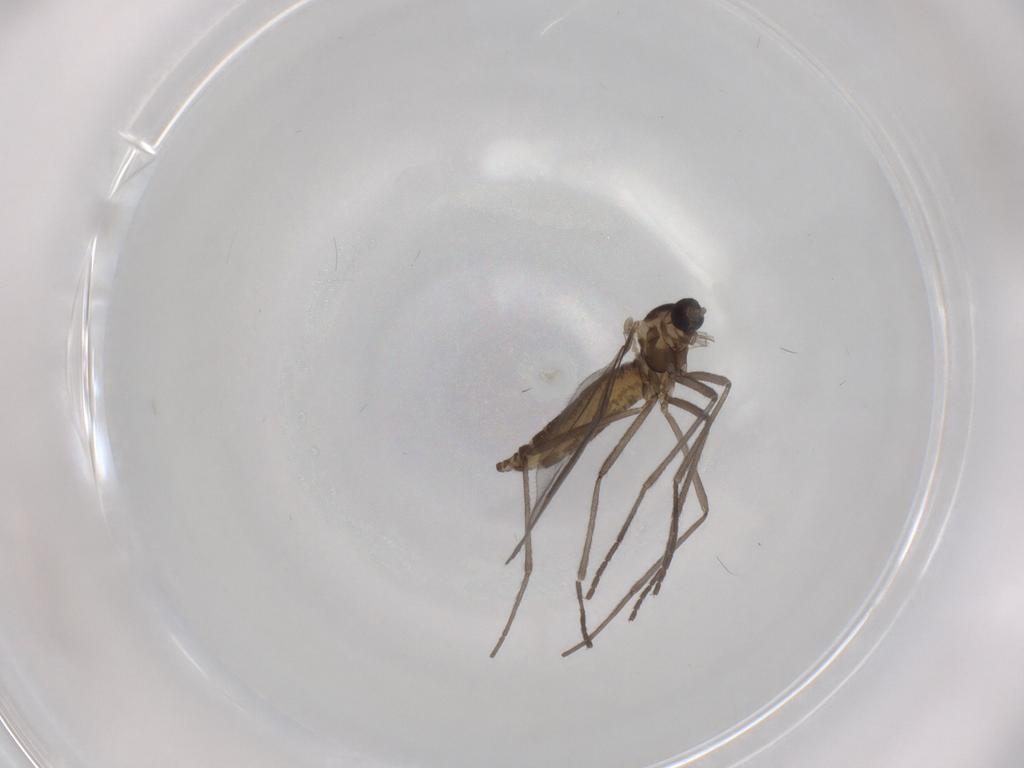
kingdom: Animalia
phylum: Arthropoda
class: Insecta
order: Diptera
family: Cecidomyiidae
